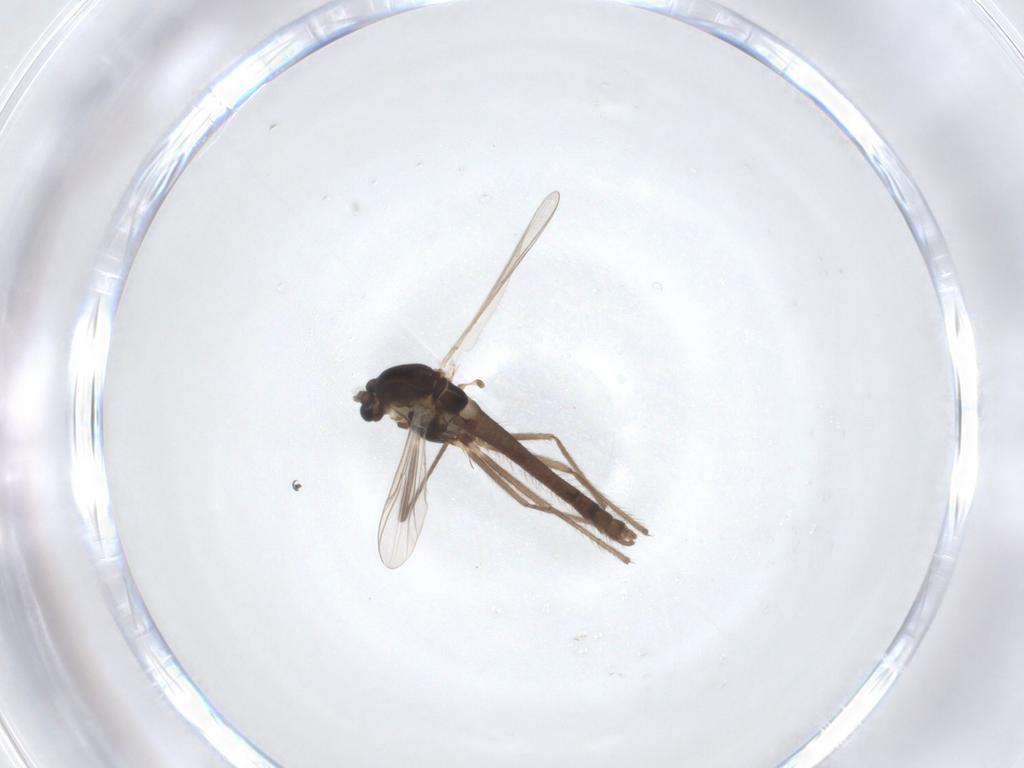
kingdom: Animalia
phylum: Arthropoda
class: Insecta
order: Diptera
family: Chironomidae
